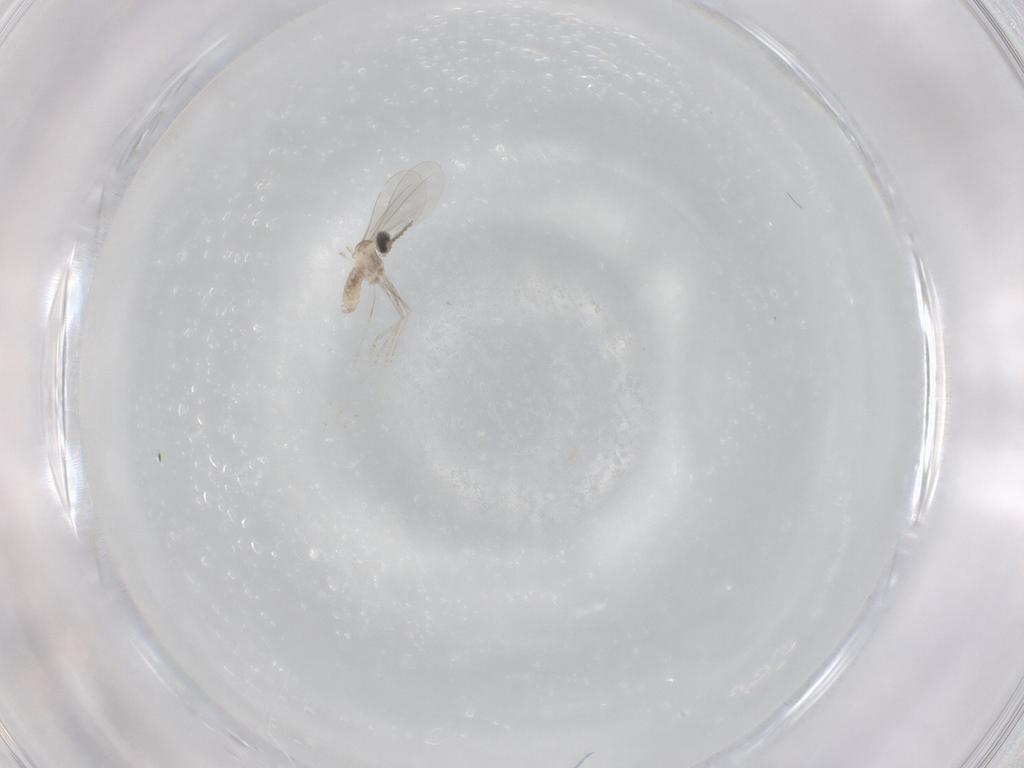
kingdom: Animalia
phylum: Arthropoda
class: Insecta
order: Diptera
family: Cecidomyiidae
